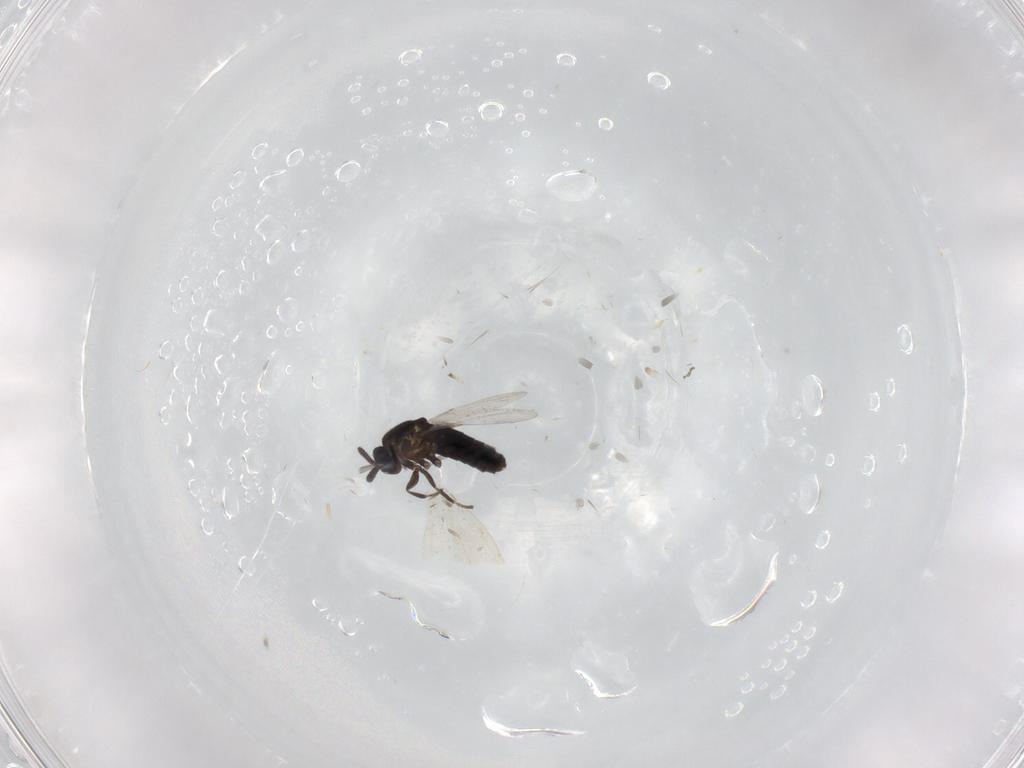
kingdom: Animalia
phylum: Arthropoda
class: Insecta
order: Diptera
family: Scatopsidae
